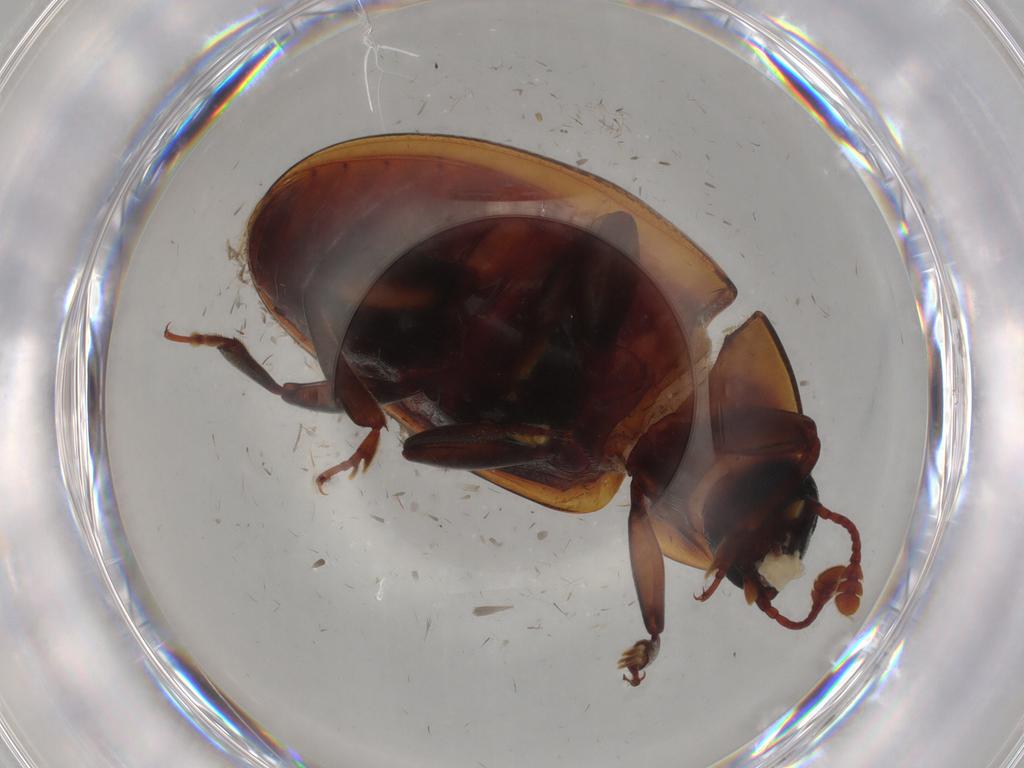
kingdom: Animalia
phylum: Arthropoda
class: Insecta
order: Coleoptera
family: Zopheridae
